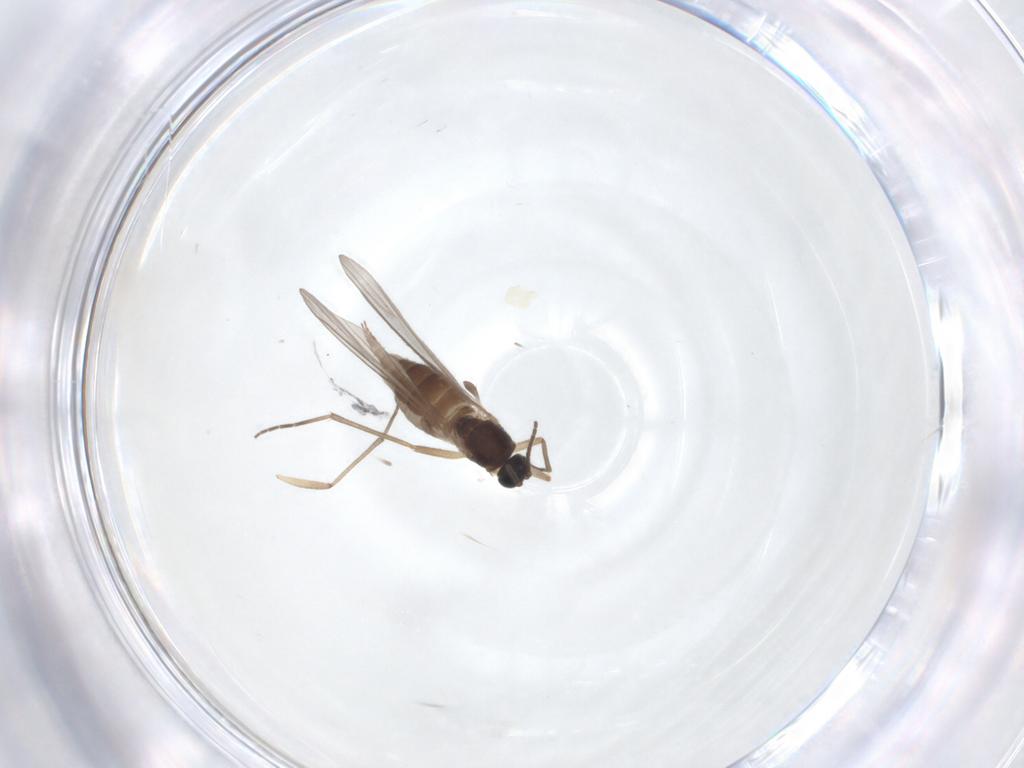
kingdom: Animalia
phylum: Arthropoda
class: Insecta
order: Diptera
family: Sciaridae
